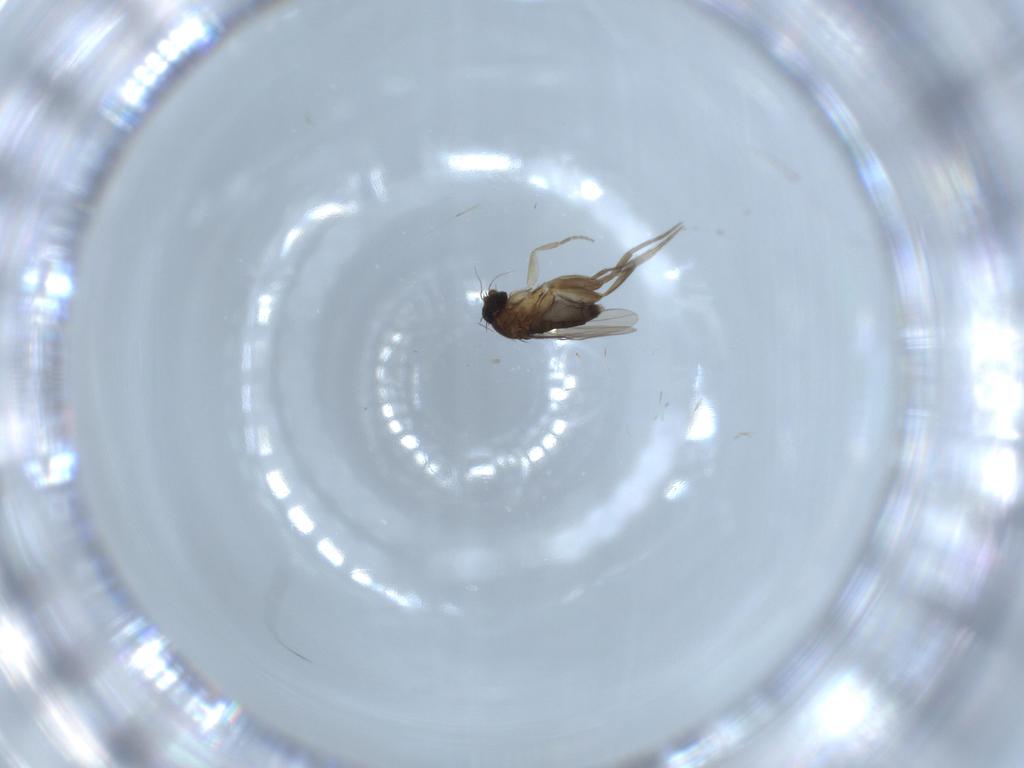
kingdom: Animalia
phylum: Arthropoda
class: Insecta
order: Diptera
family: Phoridae
